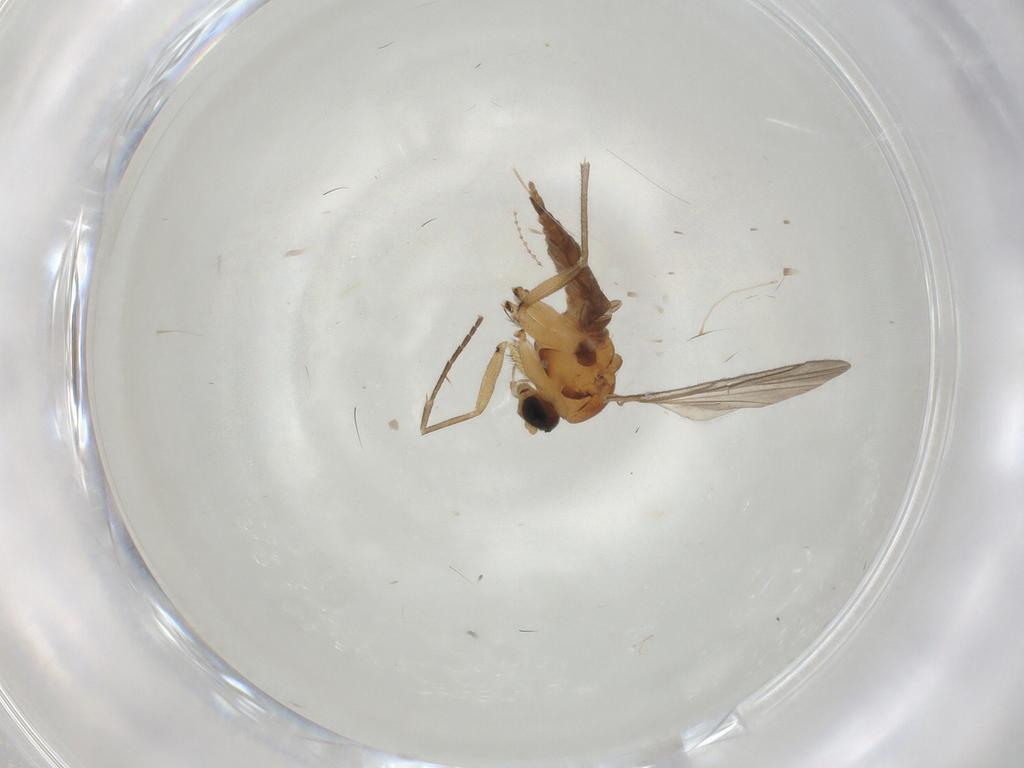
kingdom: Animalia
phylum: Arthropoda
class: Insecta
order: Diptera
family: Sciaridae
